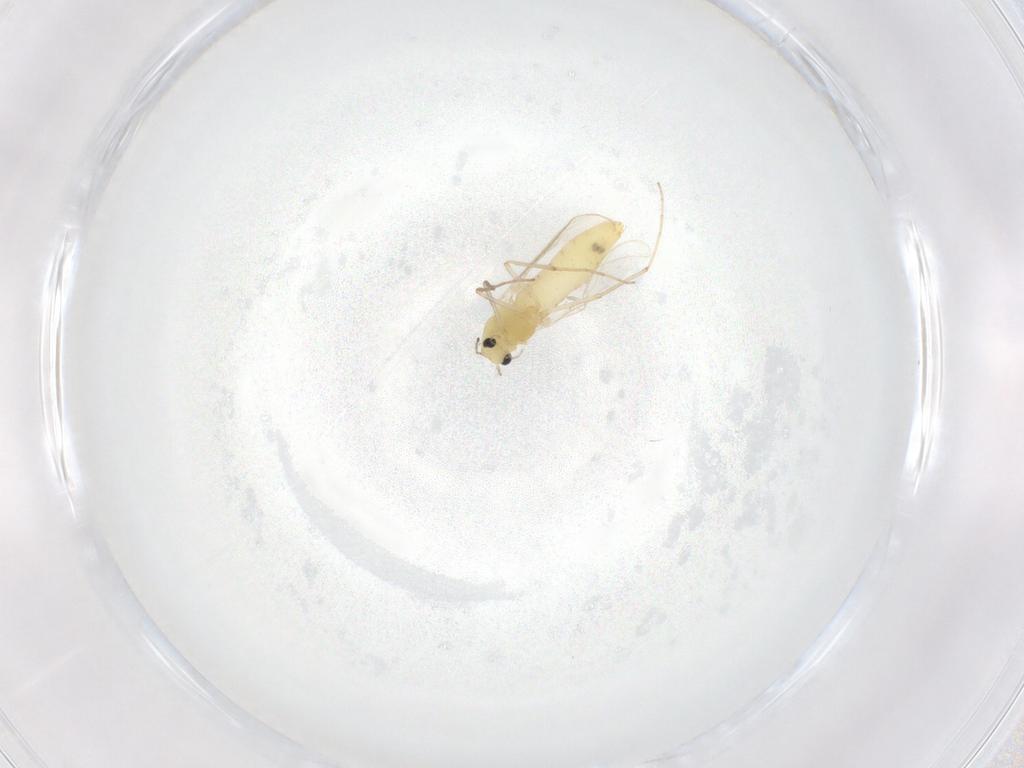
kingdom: Animalia
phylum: Arthropoda
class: Insecta
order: Diptera
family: Chironomidae
